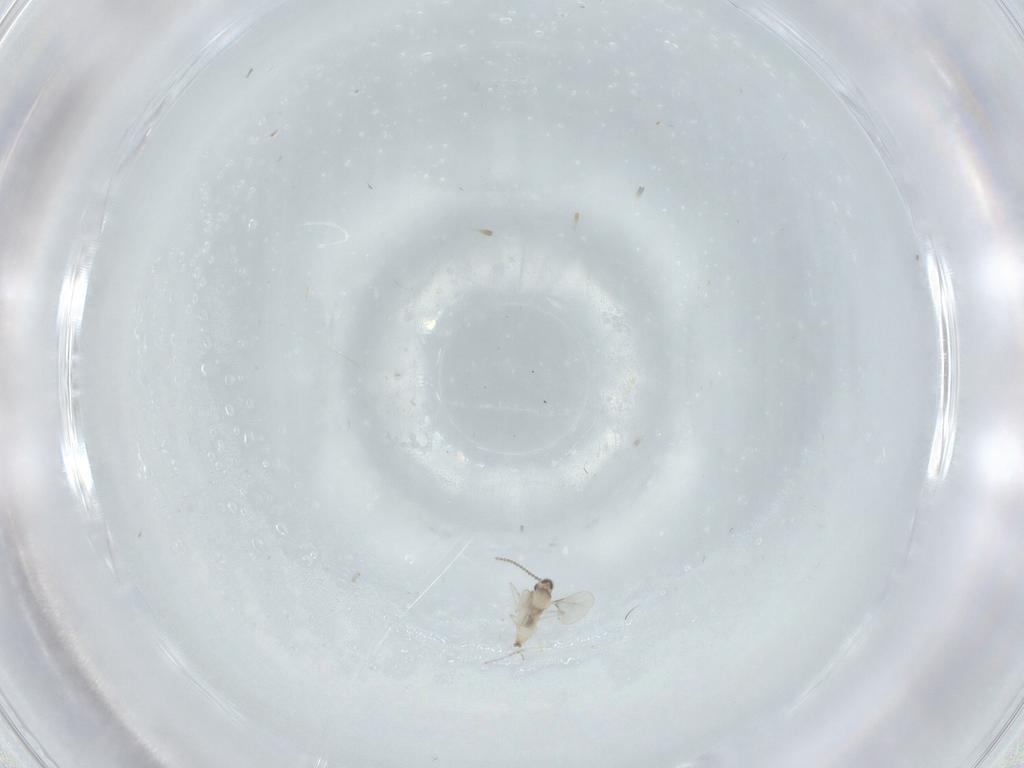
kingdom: Animalia
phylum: Arthropoda
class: Insecta
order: Diptera
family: Cecidomyiidae
